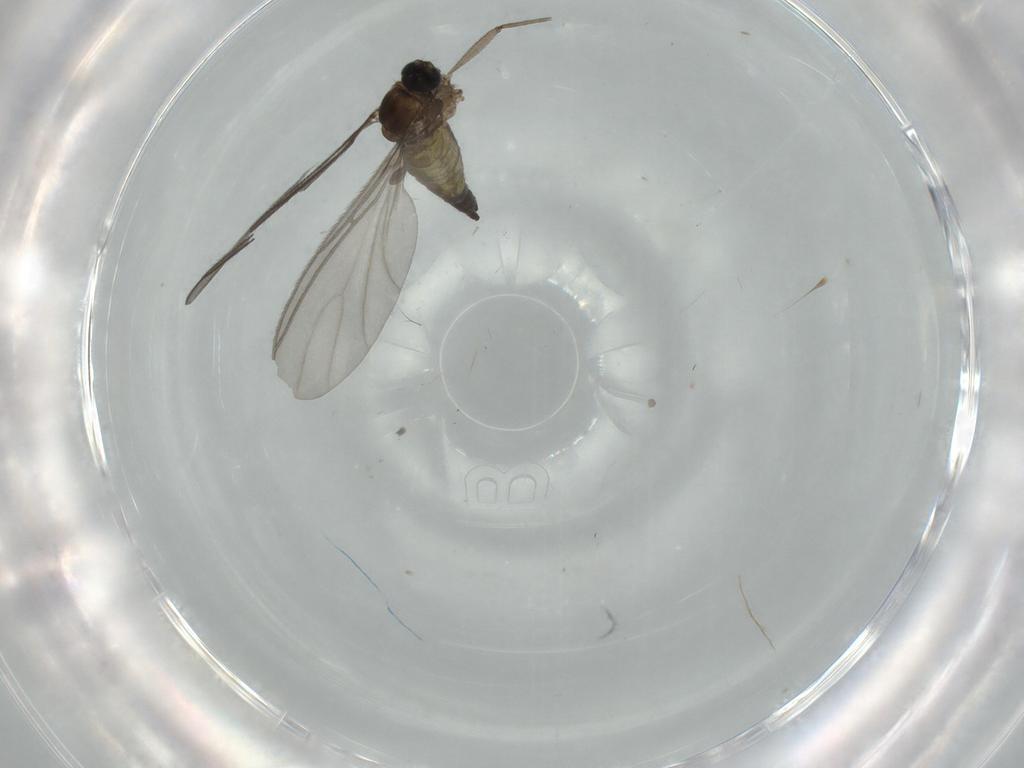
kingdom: Animalia
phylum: Arthropoda
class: Insecta
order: Diptera
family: Sciaridae
